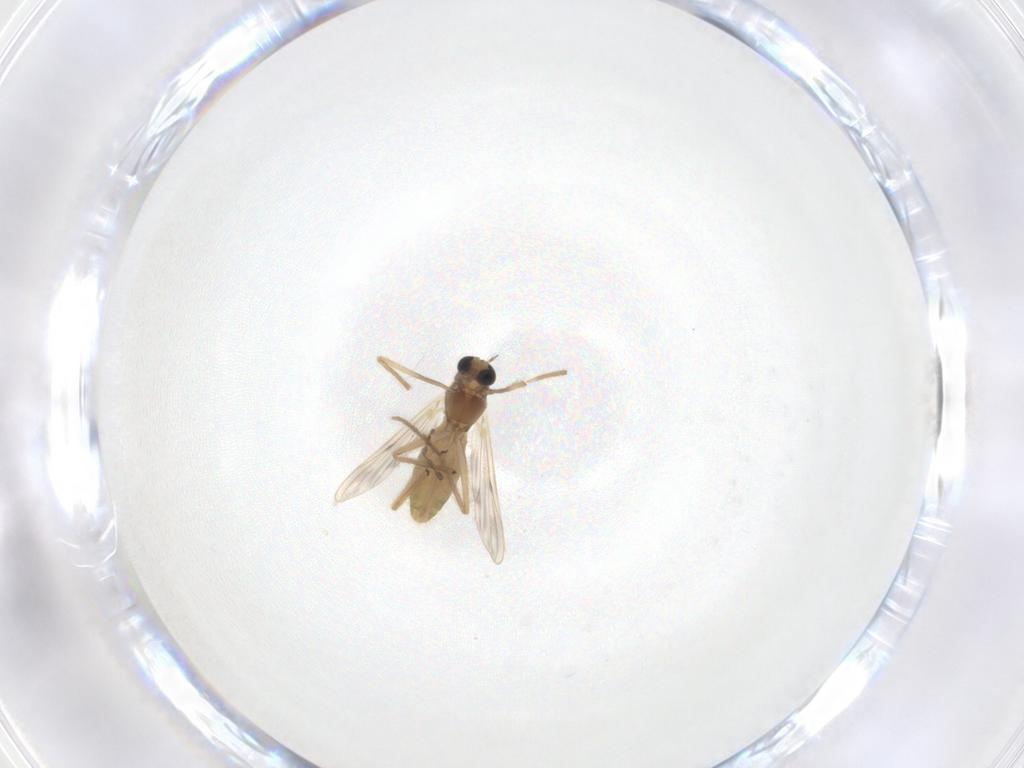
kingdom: Animalia
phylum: Arthropoda
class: Insecta
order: Diptera
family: Chironomidae
